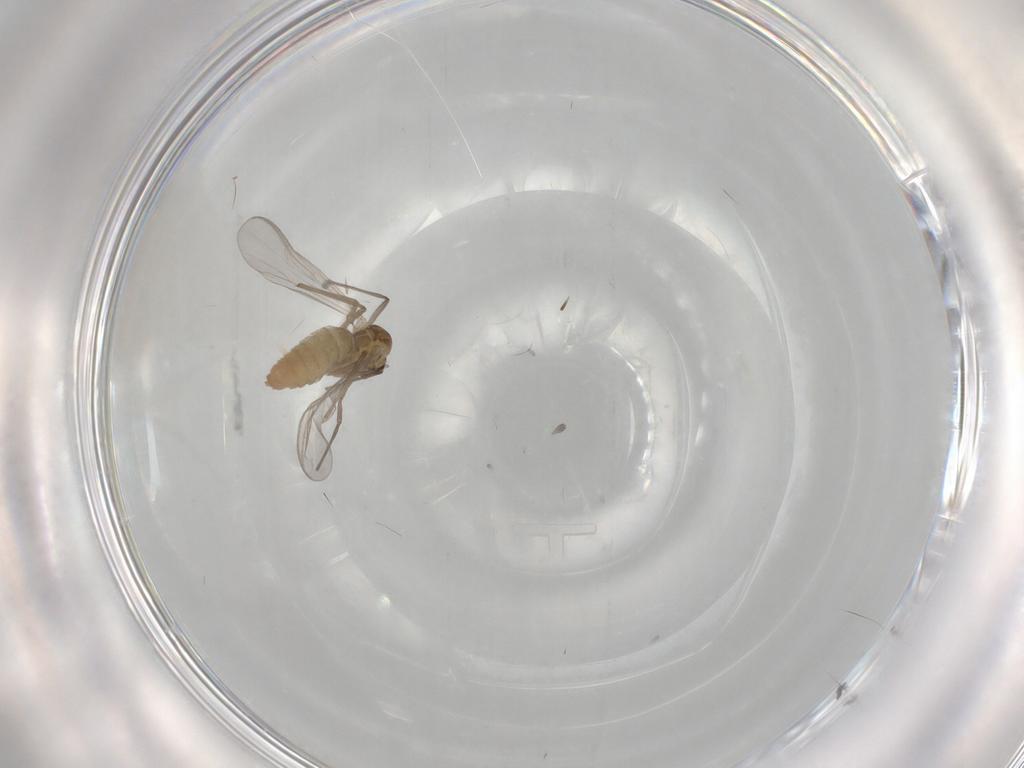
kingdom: Animalia
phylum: Arthropoda
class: Insecta
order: Diptera
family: Chironomidae
